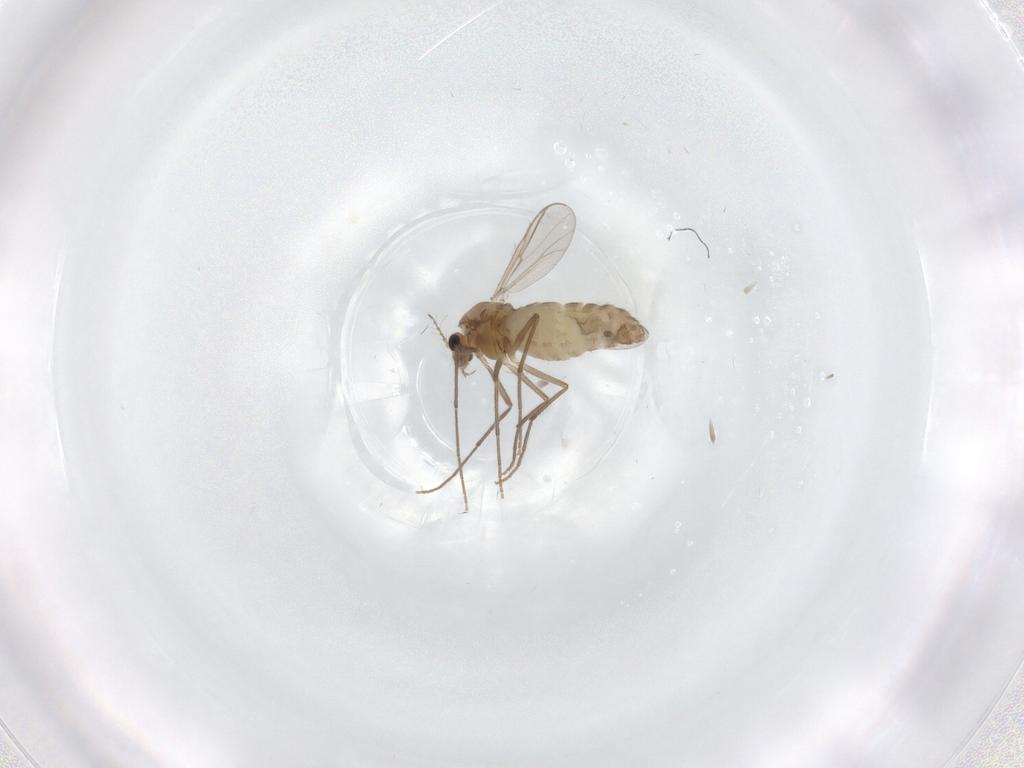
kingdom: Animalia
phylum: Arthropoda
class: Insecta
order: Diptera
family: Chironomidae
